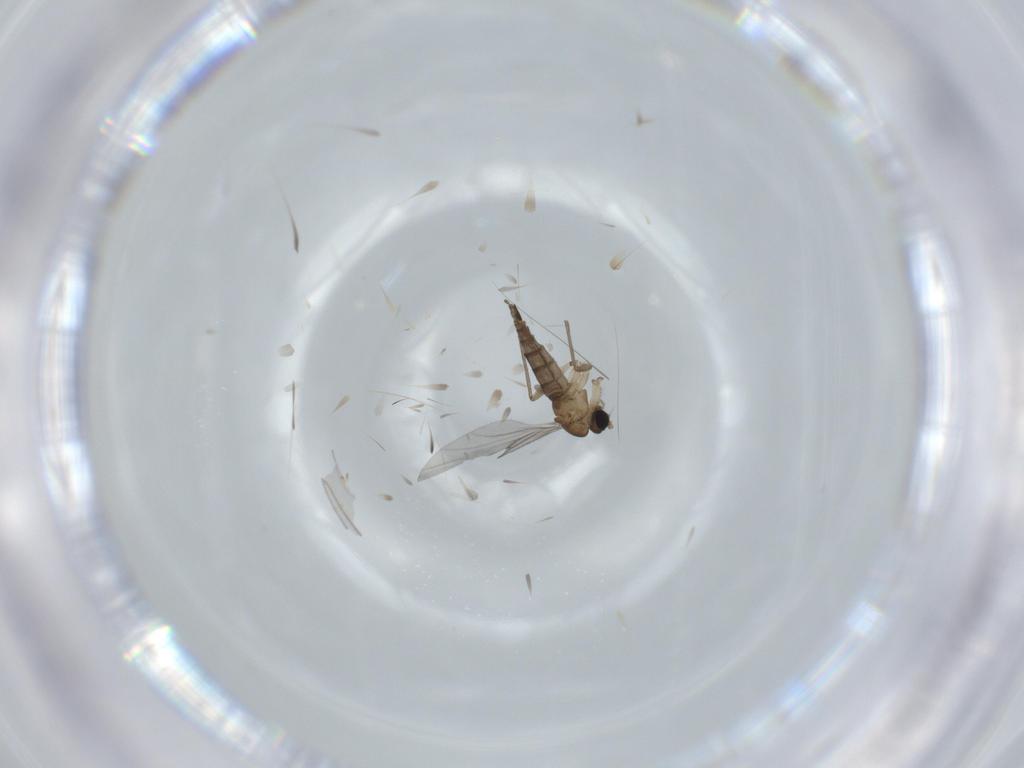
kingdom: Animalia
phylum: Arthropoda
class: Insecta
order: Diptera
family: Sciaridae
